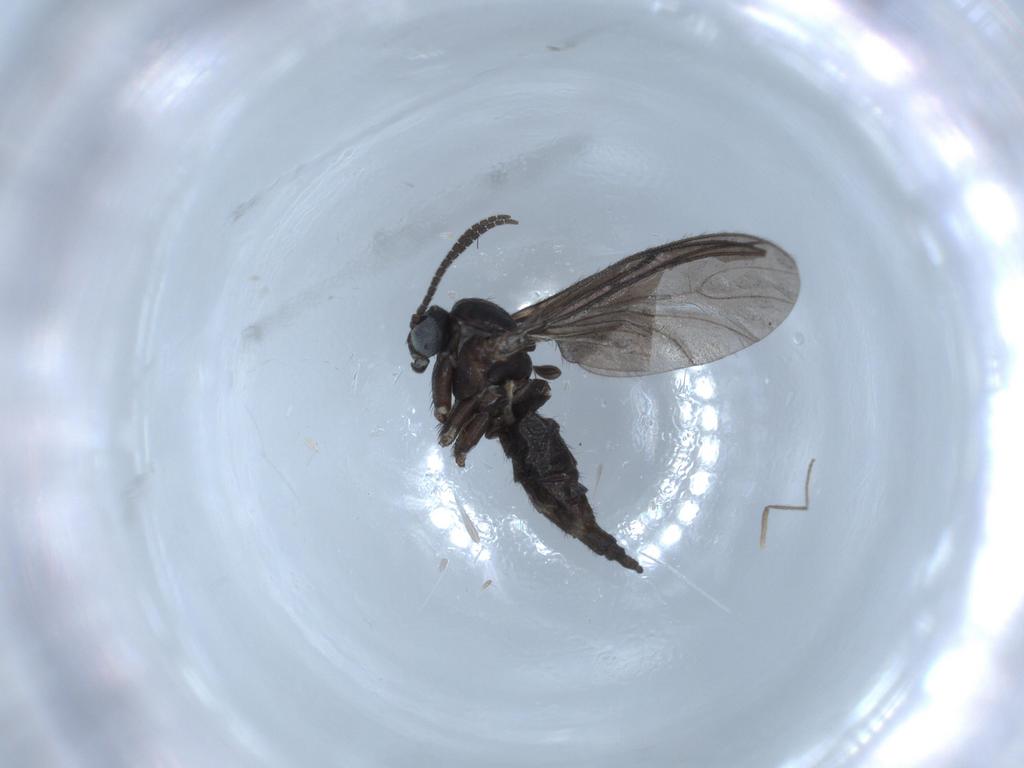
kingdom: Animalia
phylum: Arthropoda
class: Insecta
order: Diptera
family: Sciaridae
